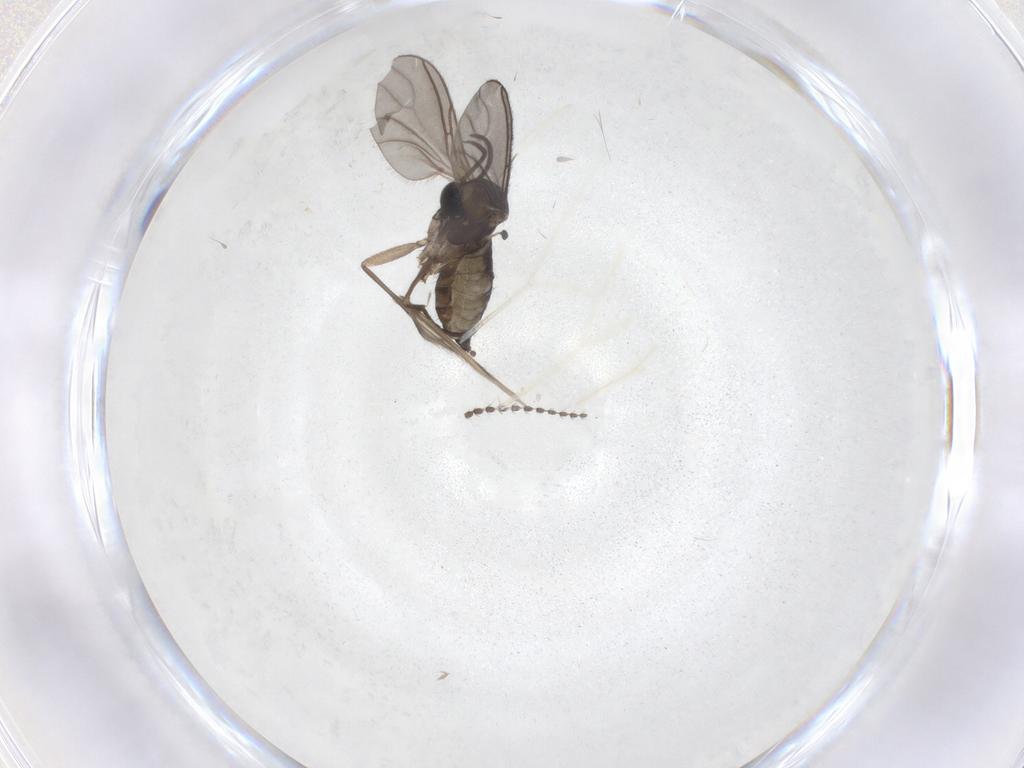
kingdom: Animalia
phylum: Arthropoda
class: Insecta
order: Diptera
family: Sciaridae
